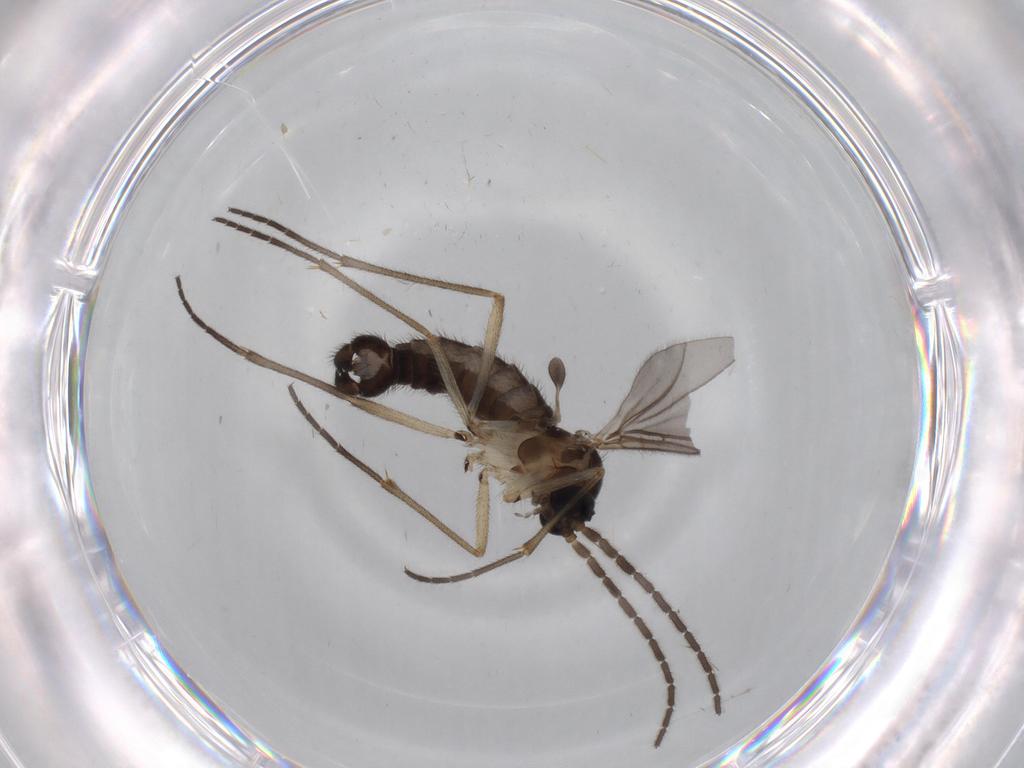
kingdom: Animalia
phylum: Arthropoda
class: Insecta
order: Diptera
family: Sciaridae
